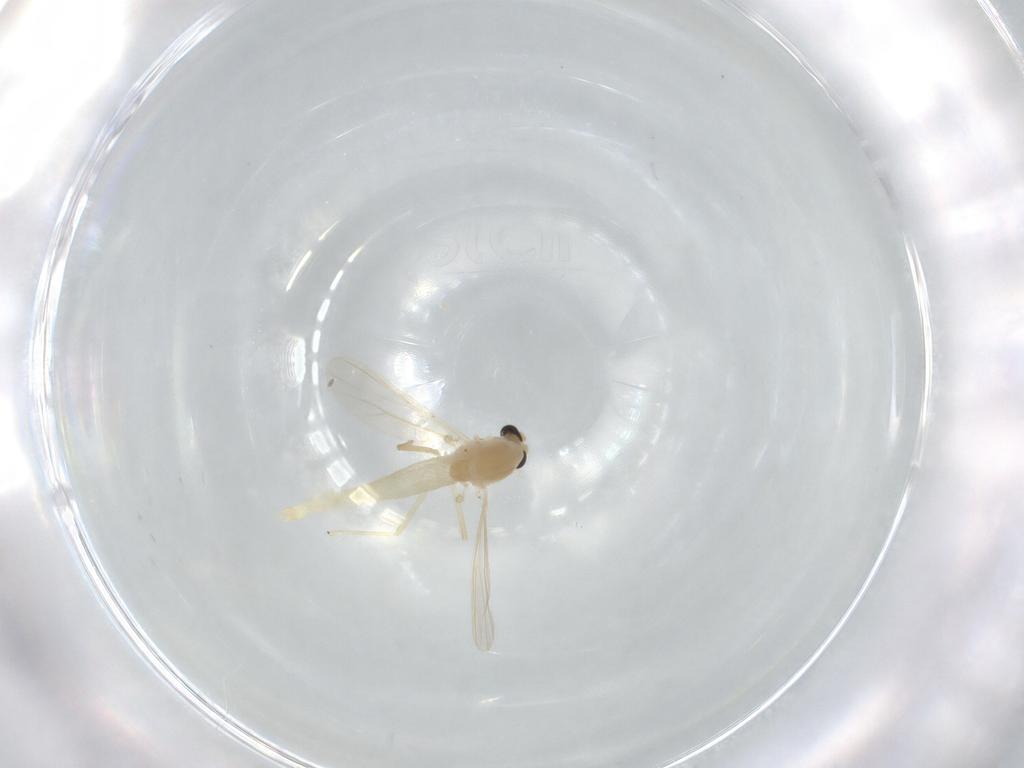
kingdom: Animalia
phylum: Arthropoda
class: Insecta
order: Diptera
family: Chironomidae
